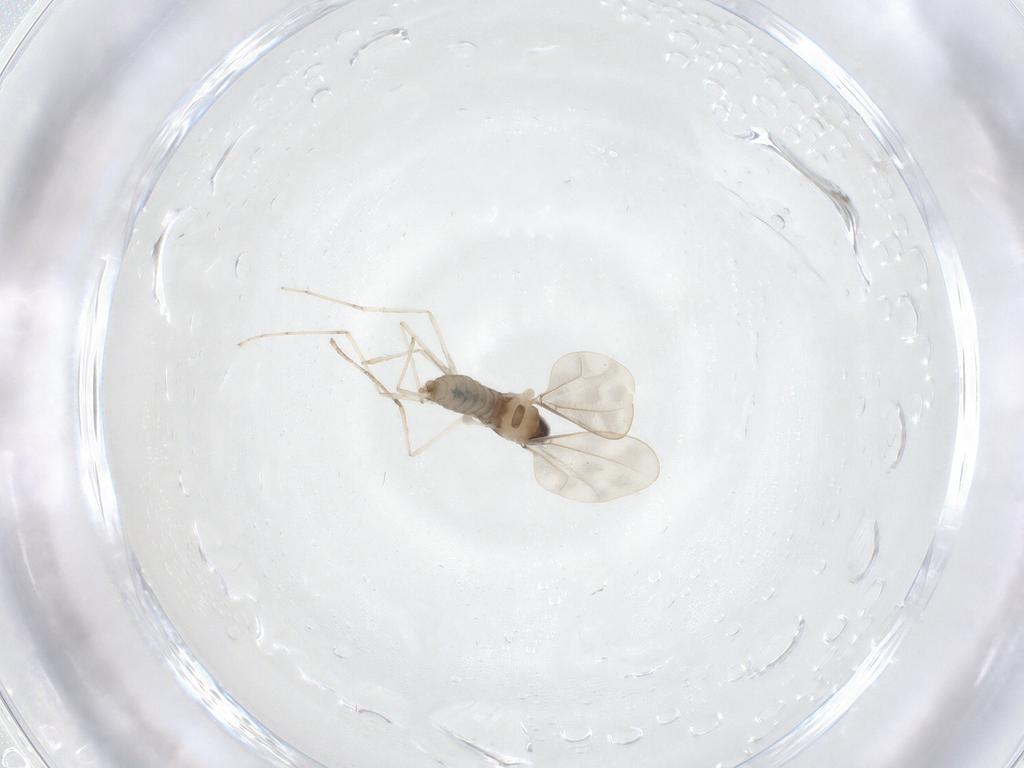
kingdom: Animalia
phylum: Arthropoda
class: Insecta
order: Diptera
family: Cecidomyiidae
